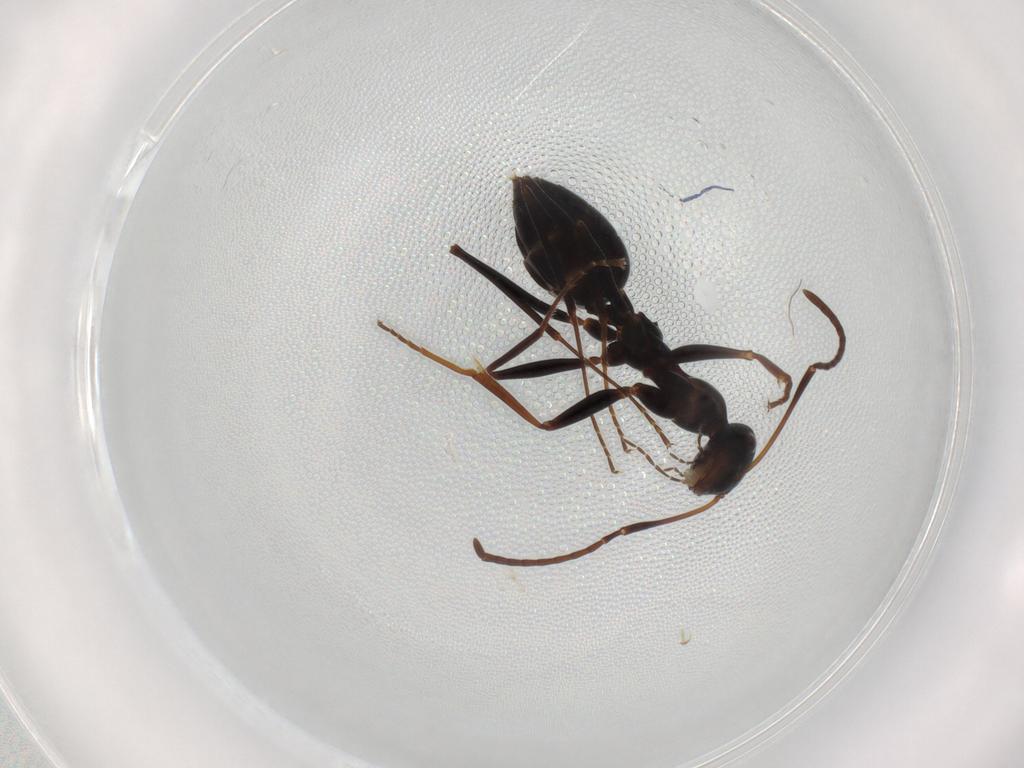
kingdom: Animalia
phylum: Arthropoda
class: Insecta
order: Hymenoptera
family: Formicidae
